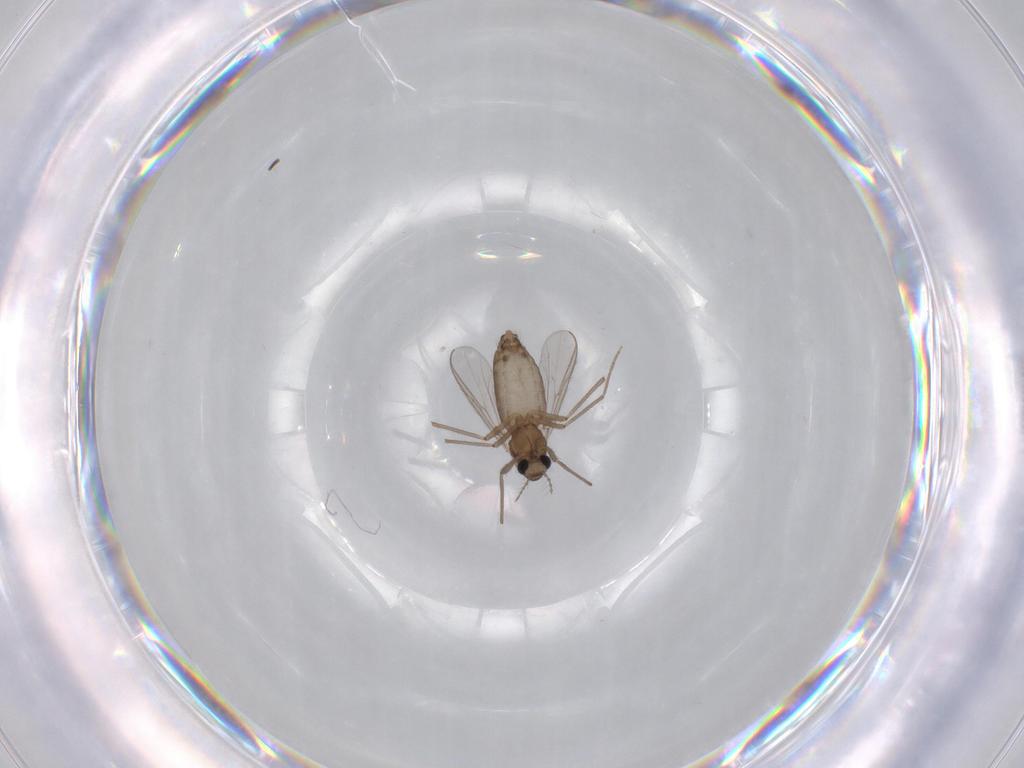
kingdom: Animalia
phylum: Arthropoda
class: Insecta
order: Diptera
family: Chironomidae
